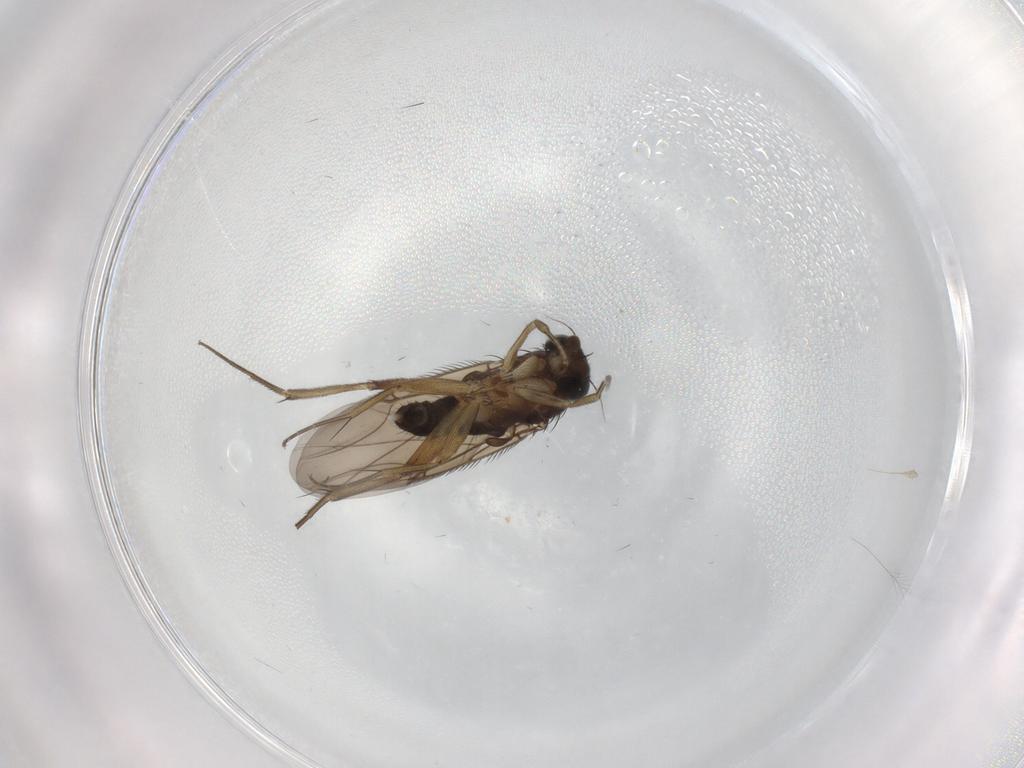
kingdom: Animalia
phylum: Arthropoda
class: Insecta
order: Diptera
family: Phoridae
